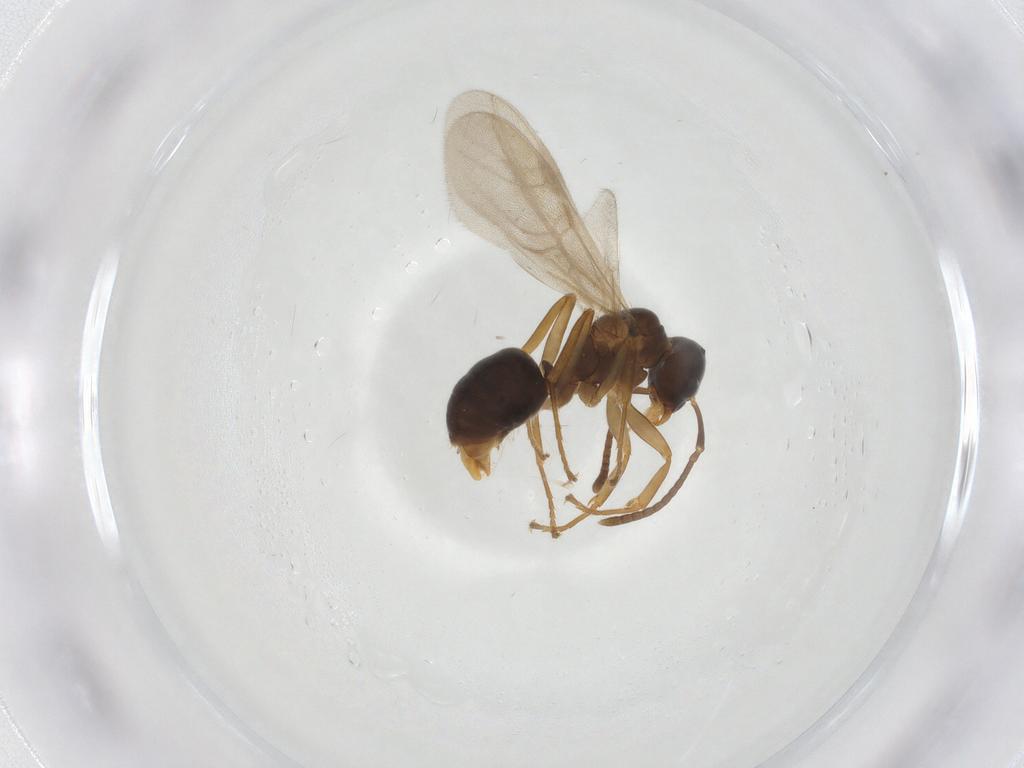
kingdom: Animalia
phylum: Arthropoda
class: Insecta
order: Hymenoptera
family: Formicidae
